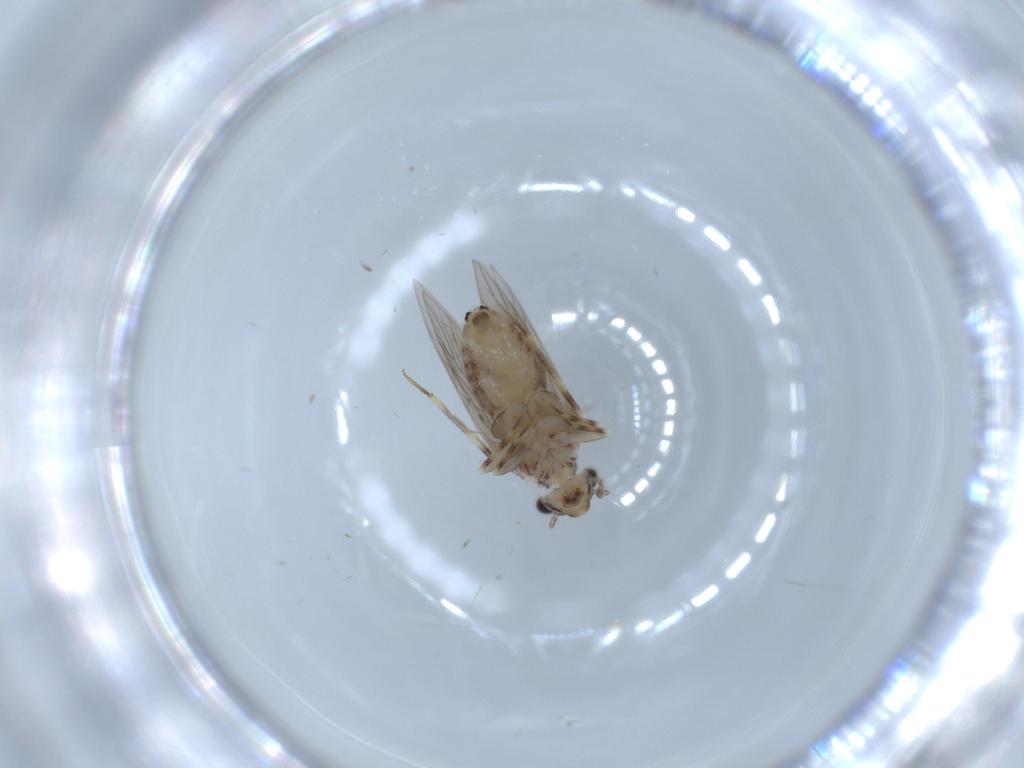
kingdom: Animalia
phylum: Arthropoda
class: Insecta
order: Psocodea
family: Lepidopsocidae
